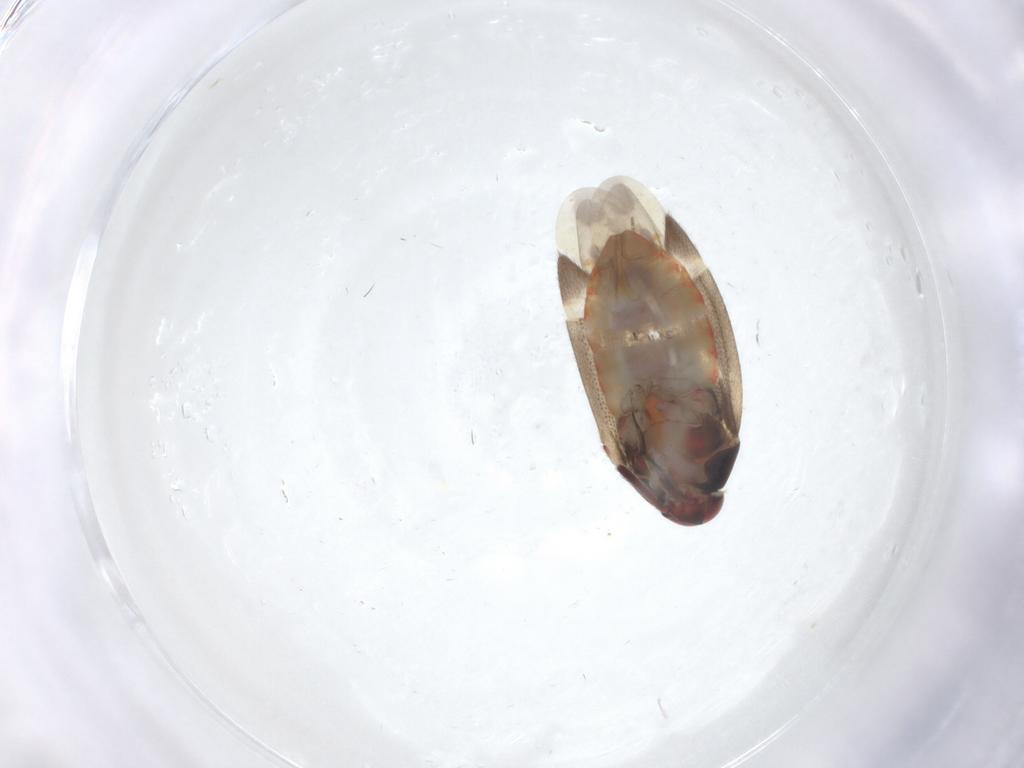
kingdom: Animalia
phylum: Arthropoda
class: Insecta
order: Hemiptera
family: Miridae
